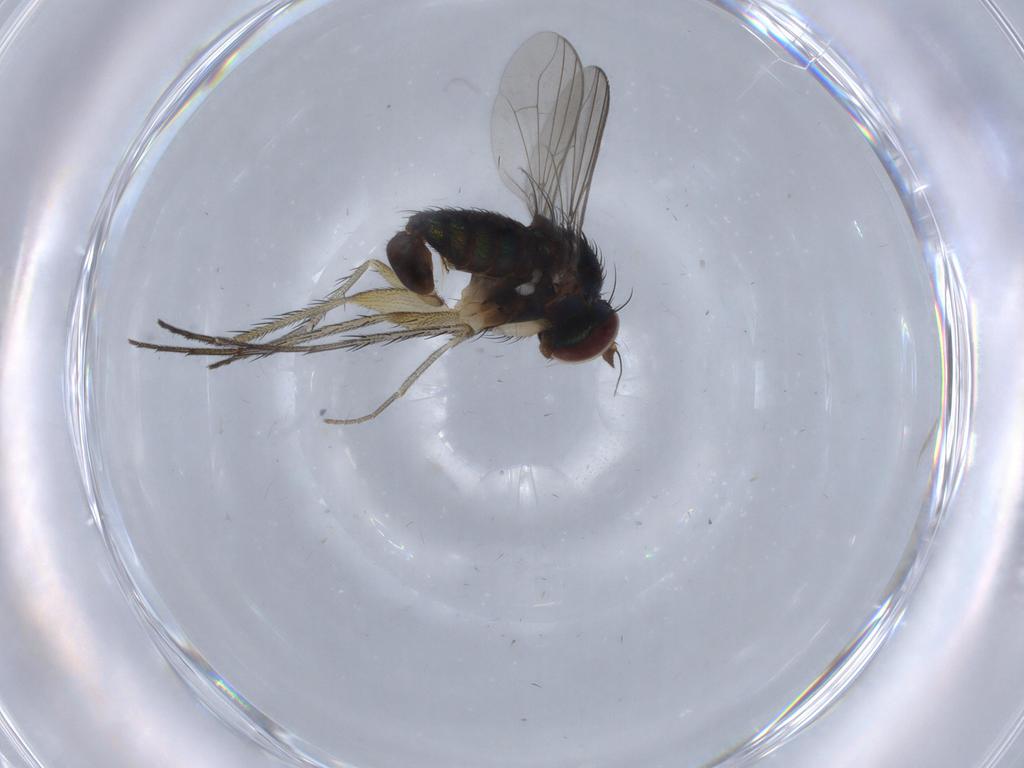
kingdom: Animalia
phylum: Arthropoda
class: Insecta
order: Diptera
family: Dolichopodidae
